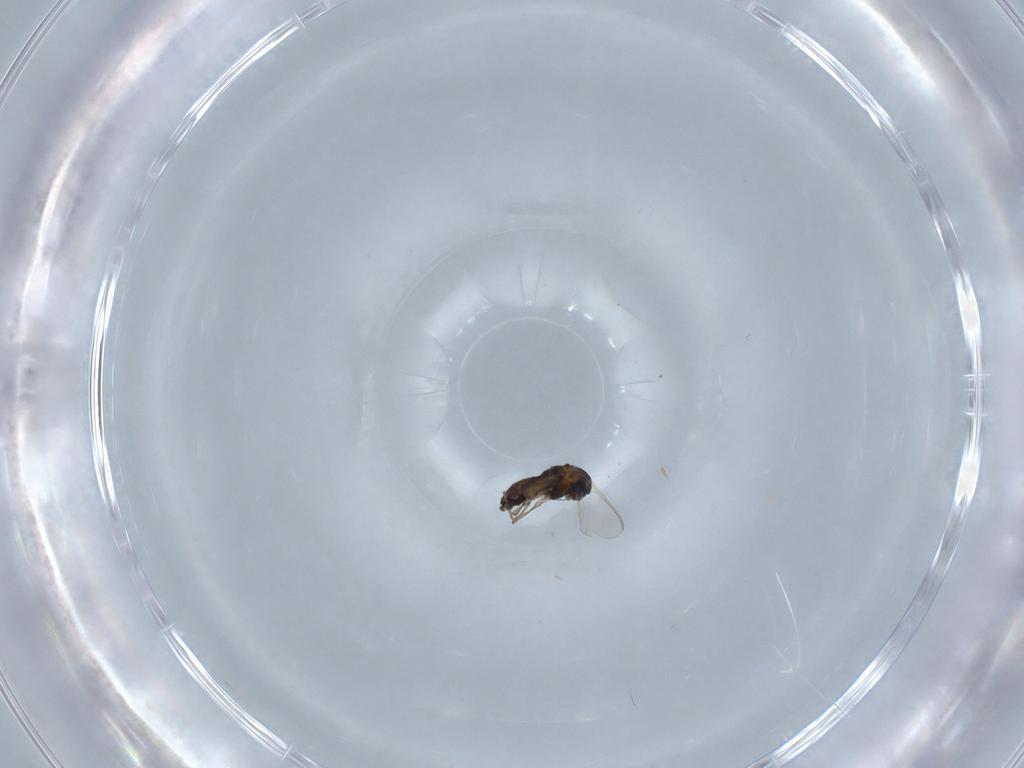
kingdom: Animalia
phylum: Arthropoda
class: Insecta
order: Diptera
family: Chironomidae
